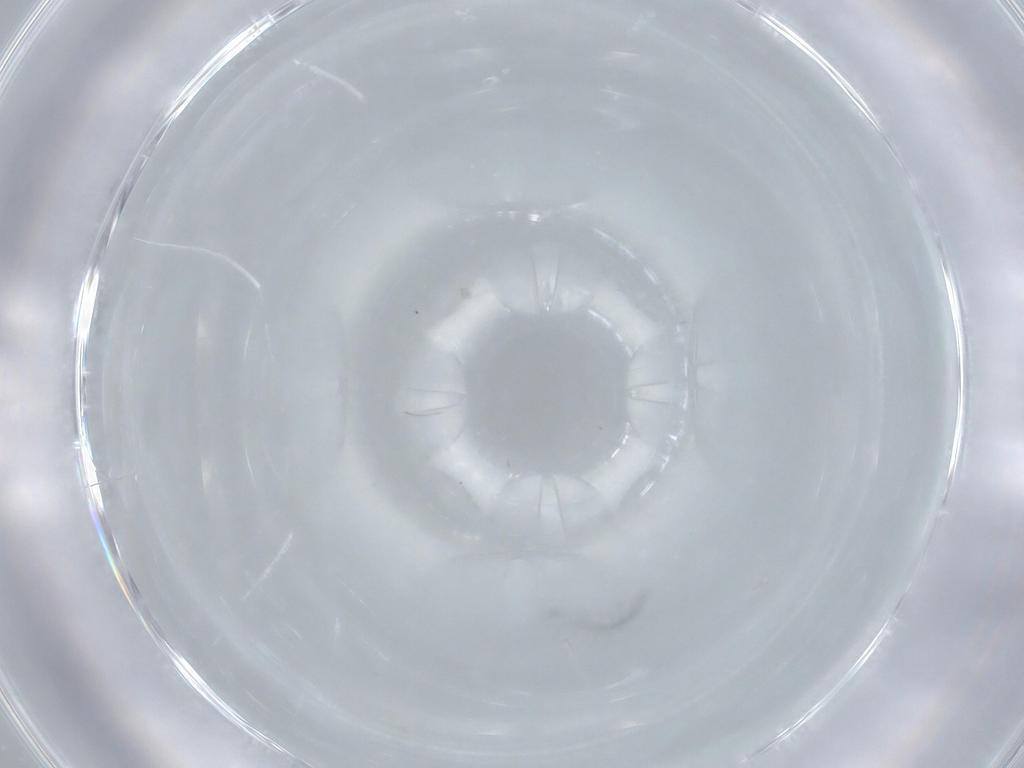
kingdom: Animalia
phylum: Arthropoda
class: Insecta
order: Diptera
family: Cecidomyiidae
